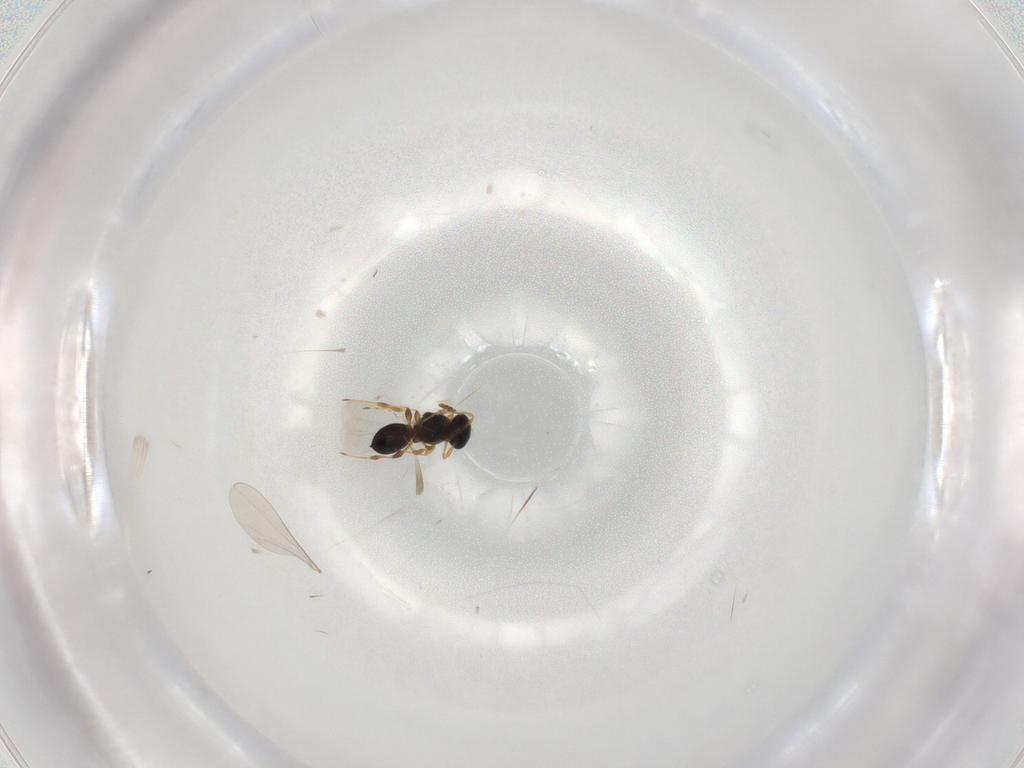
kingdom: Animalia
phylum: Arthropoda
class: Insecta
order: Hymenoptera
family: Platygastridae
